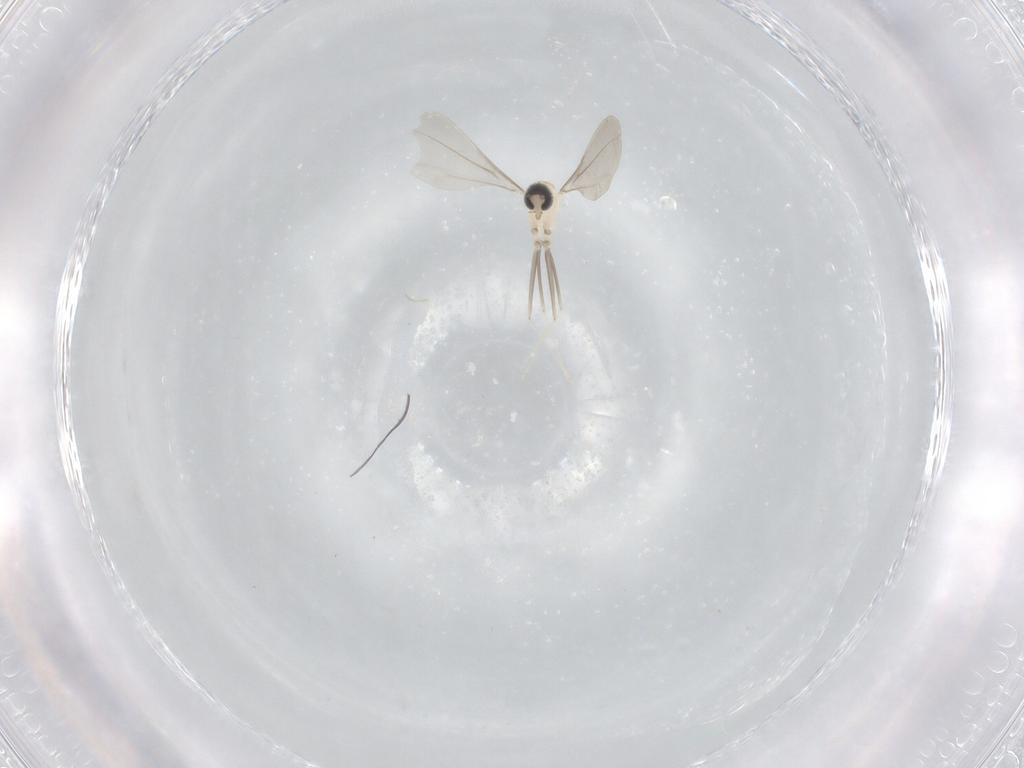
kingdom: Animalia
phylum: Arthropoda
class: Insecta
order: Diptera
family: Cecidomyiidae
